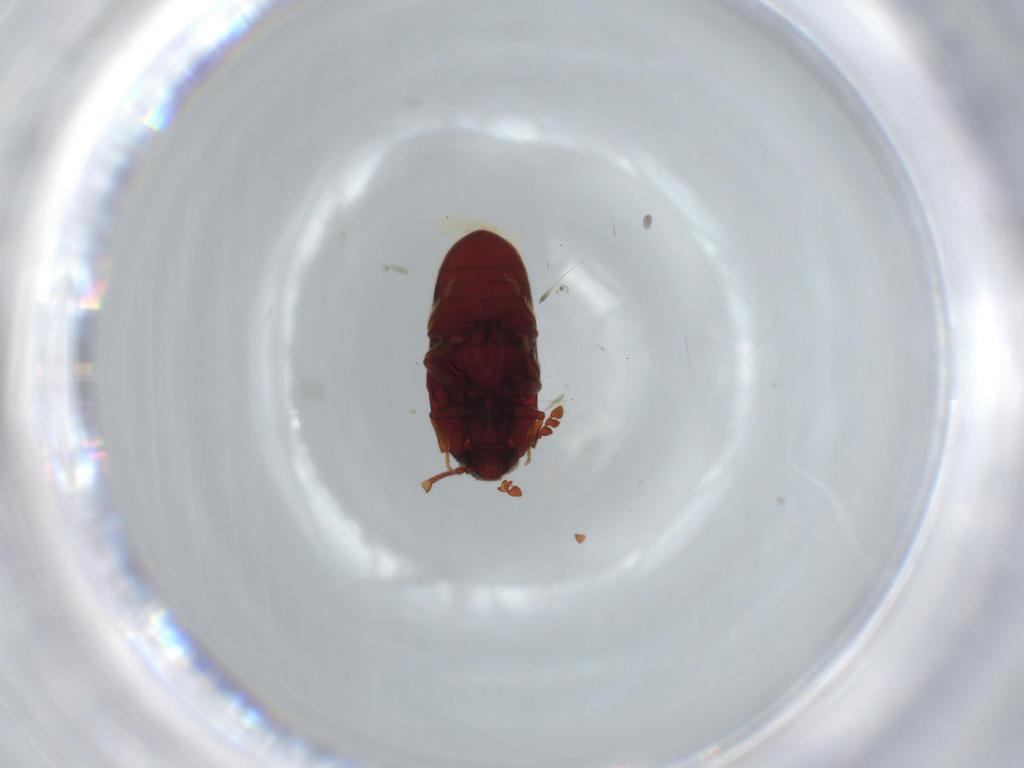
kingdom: Animalia
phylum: Arthropoda
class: Insecta
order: Coleoptera
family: Throscidae
